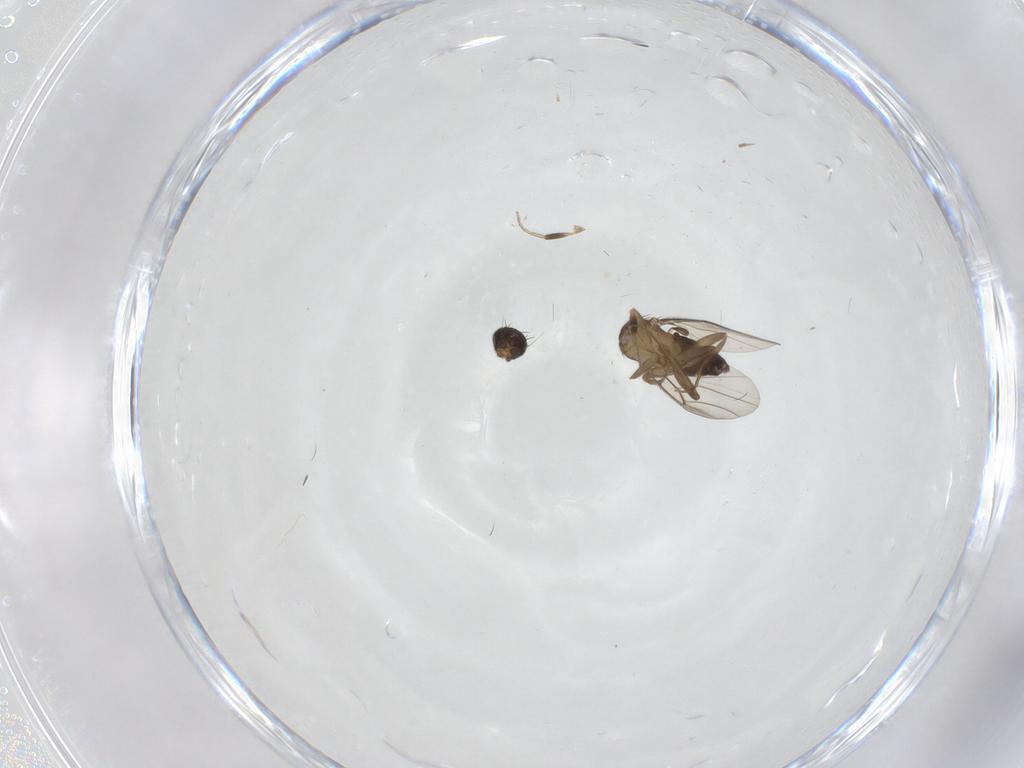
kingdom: Animalia
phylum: Arthropoda
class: Insecta
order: Diptera
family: Phoridae
